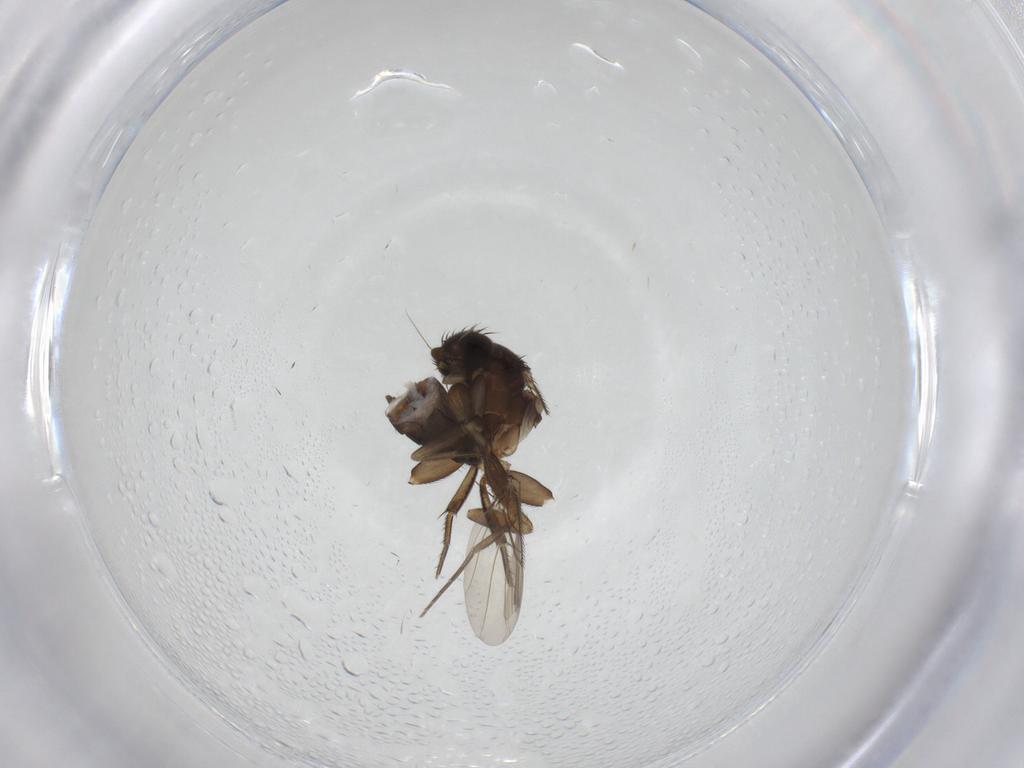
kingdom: Animalia
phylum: Arthropoda
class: Insecta
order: Diptera
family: Phoridae
